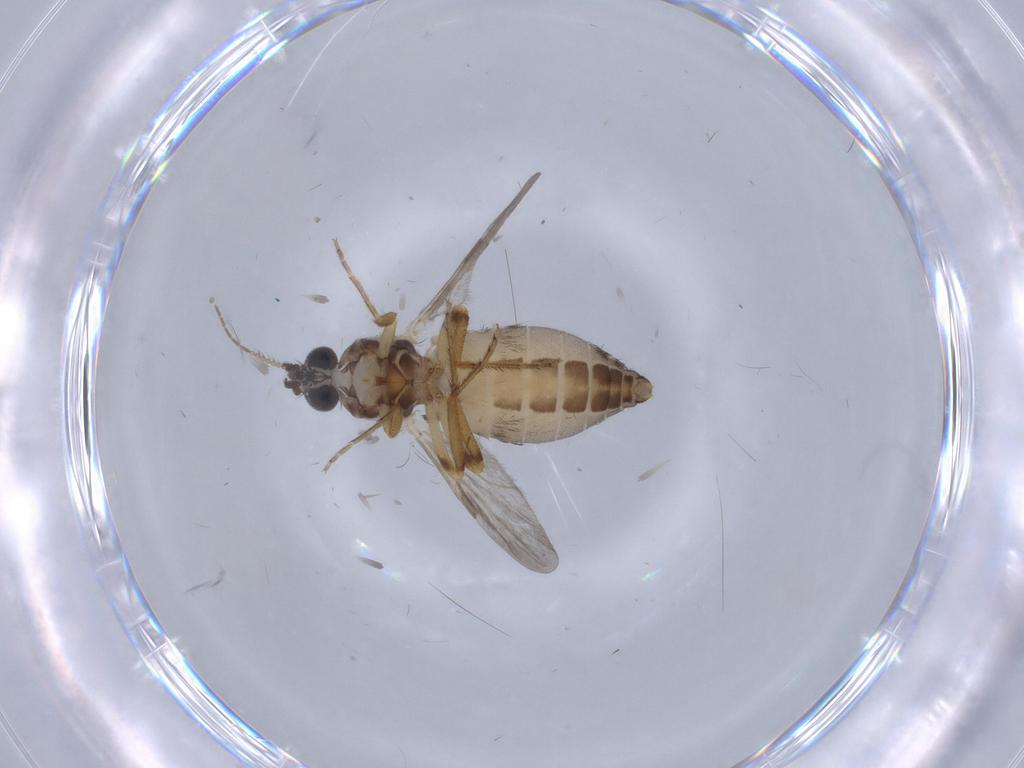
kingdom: Animalia
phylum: Arthropoda
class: Insecta
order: Diptera
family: Ceratopogonidae
